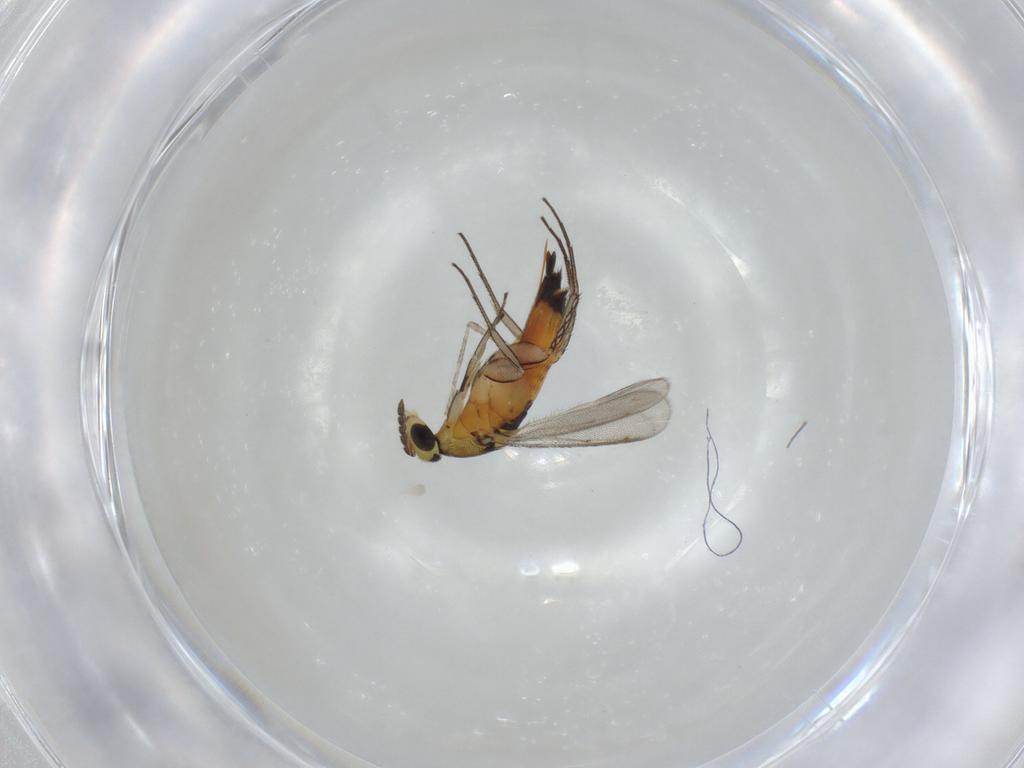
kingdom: Animalia
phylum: Arthropoda
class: Insecta
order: Hymenoptera
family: Eulophidae
